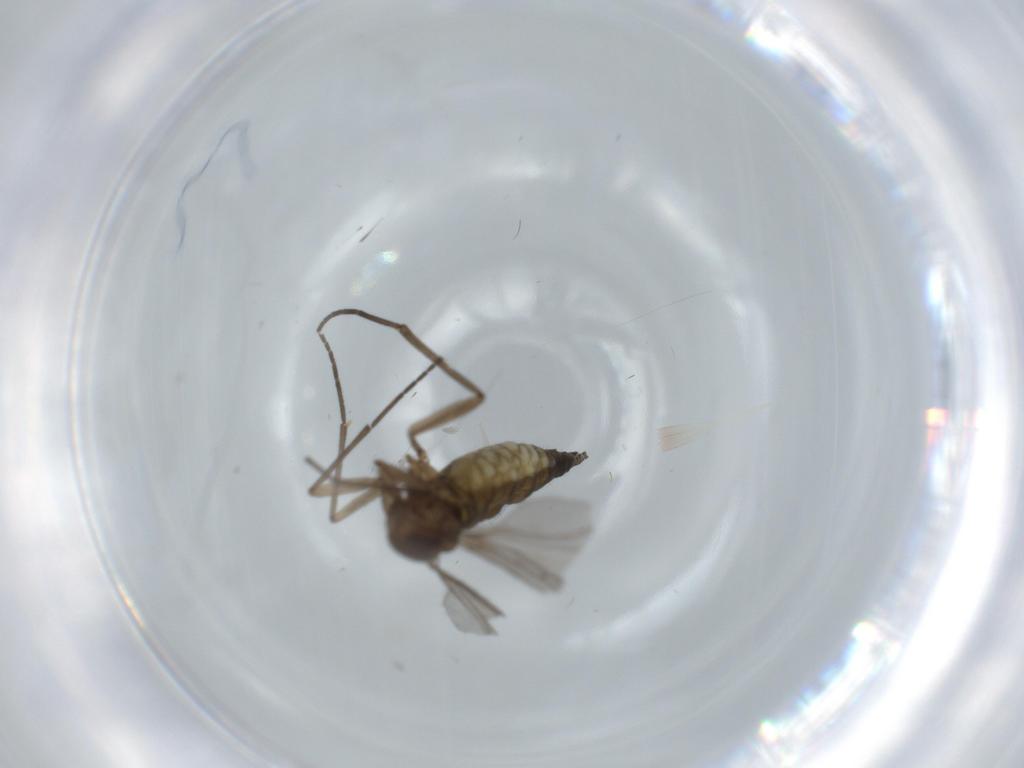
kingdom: Animalia
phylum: Arthropoda
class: Insecta
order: Diptera
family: Sciaridae
